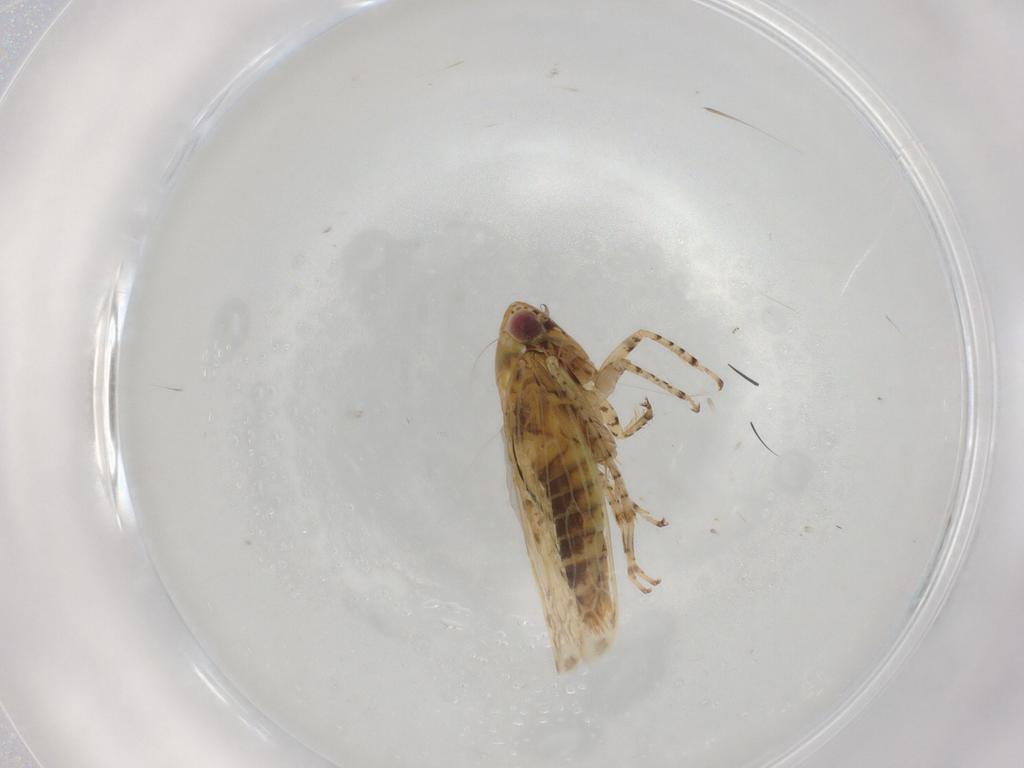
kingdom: Animalia
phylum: Arthropoda
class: Insecta
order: Hemiptera
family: Cicadellidae
